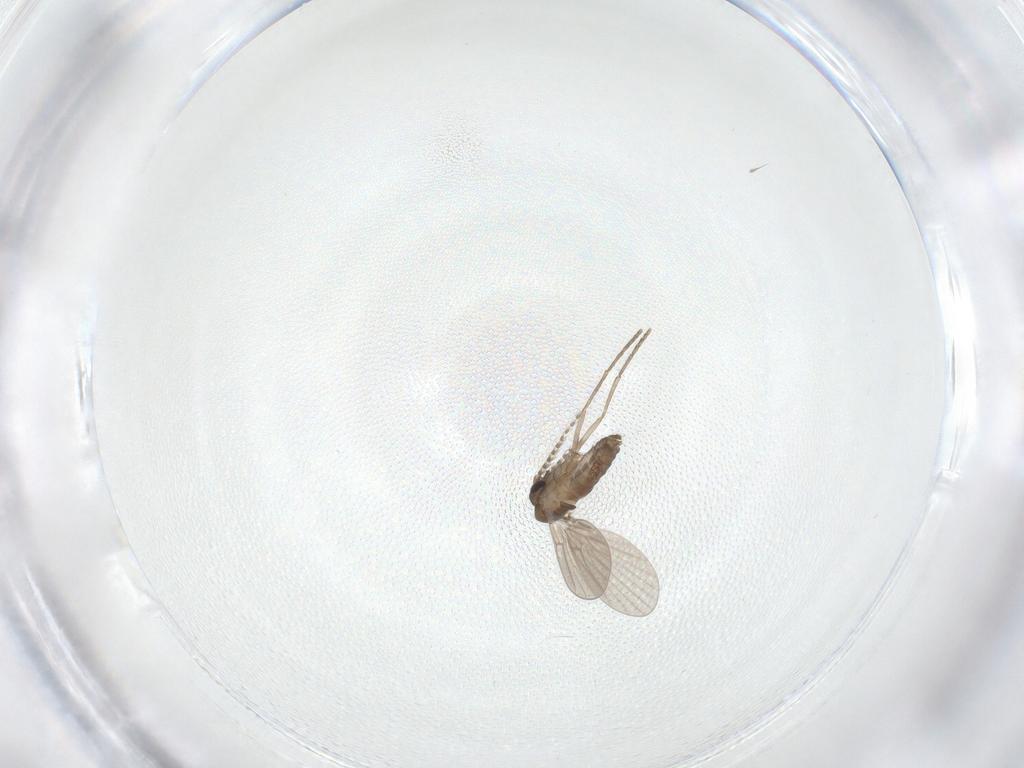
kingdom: Animalia
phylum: Arthropoda
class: Insecta
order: Diptera
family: Psychodidae
